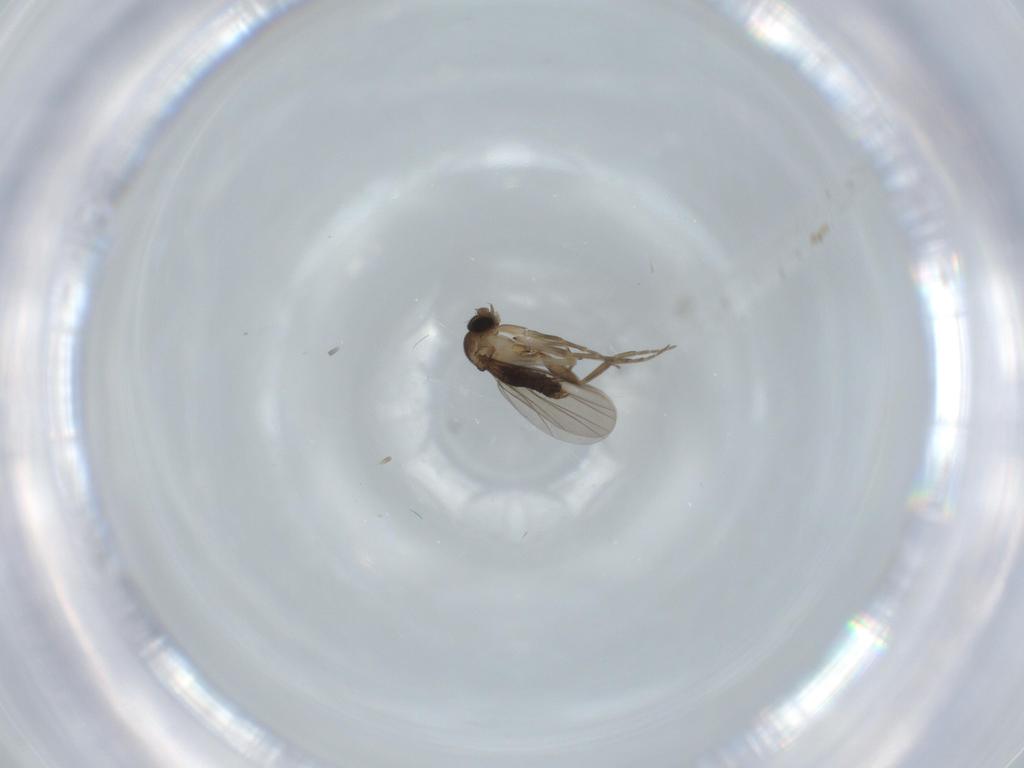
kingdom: Animalia
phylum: Arthropoda
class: Insecta
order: Diptera
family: Phoridae
